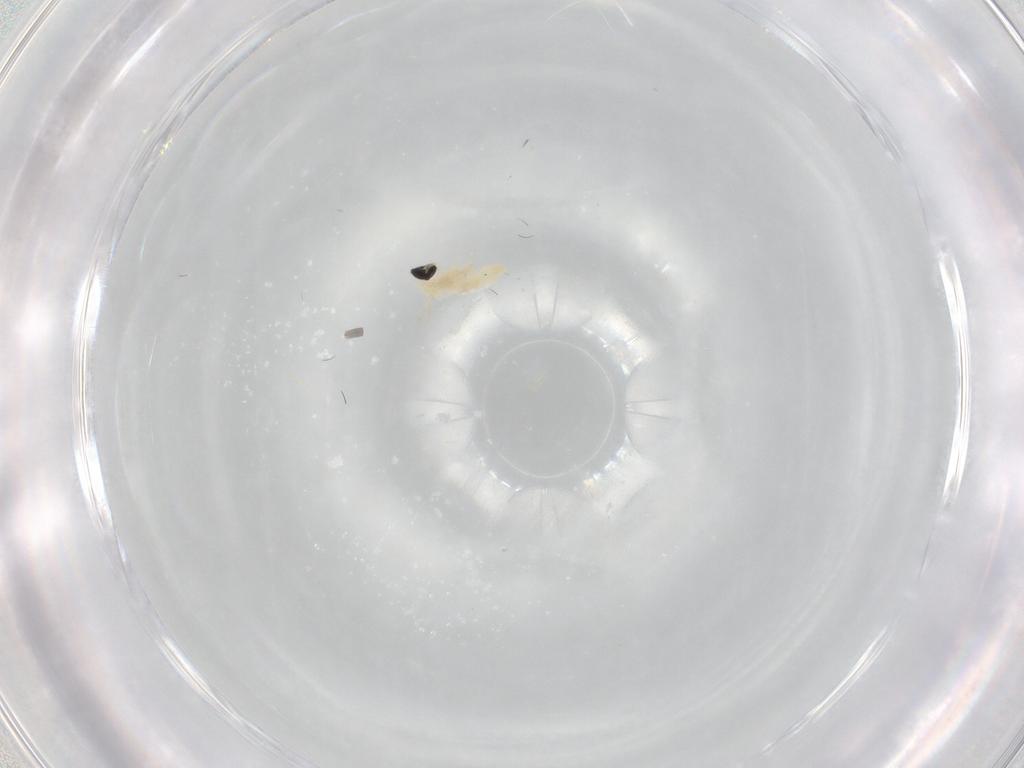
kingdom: Animalia
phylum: Arthropoda
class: Insecta
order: Diptera
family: Cecidomyiidae
